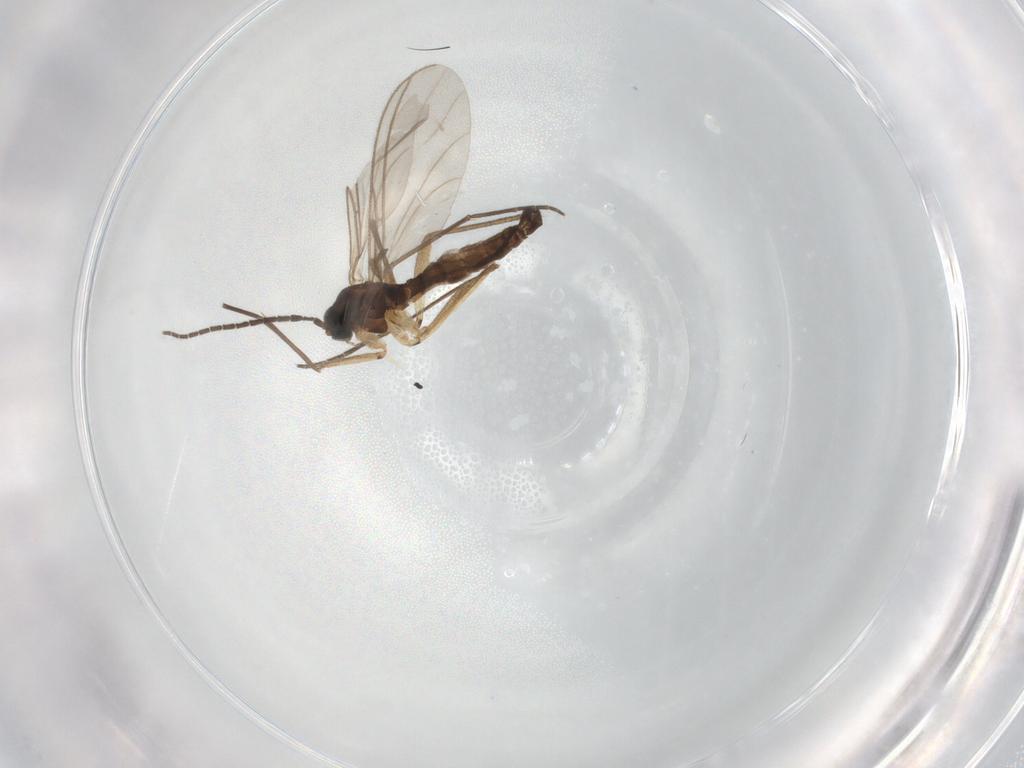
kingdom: Animalia
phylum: Arthropoda
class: Insecta
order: Diptera
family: Sciaridae
